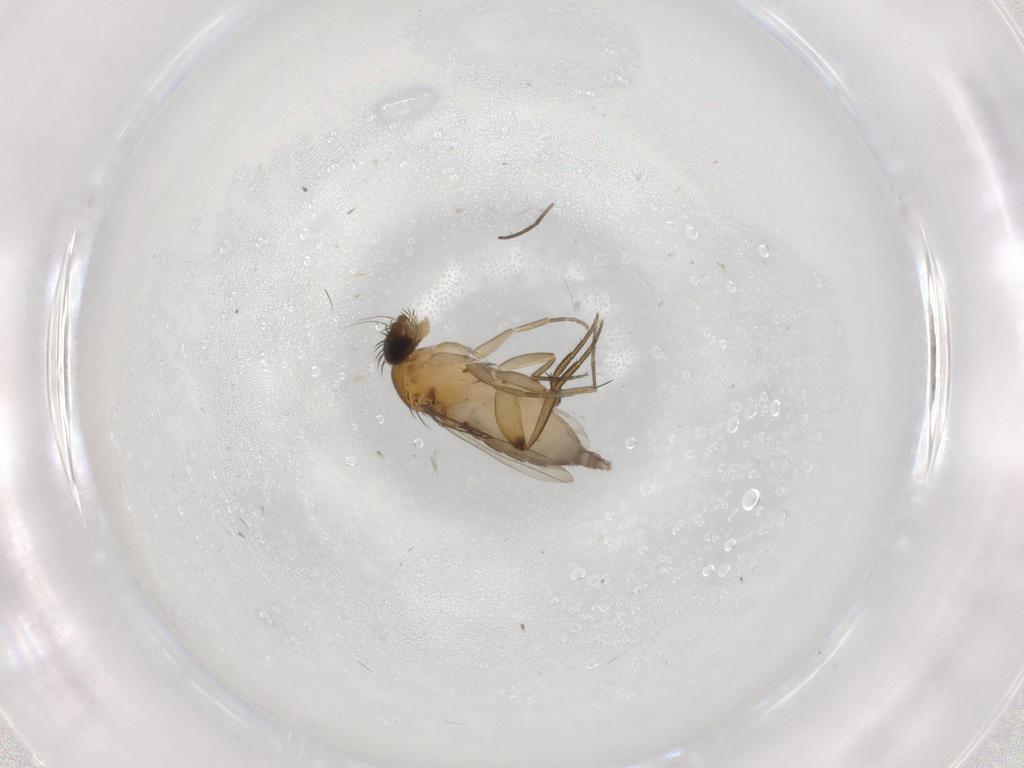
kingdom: Animalia
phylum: Arthropoda
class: Insecta
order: Diptera
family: Phoridae
